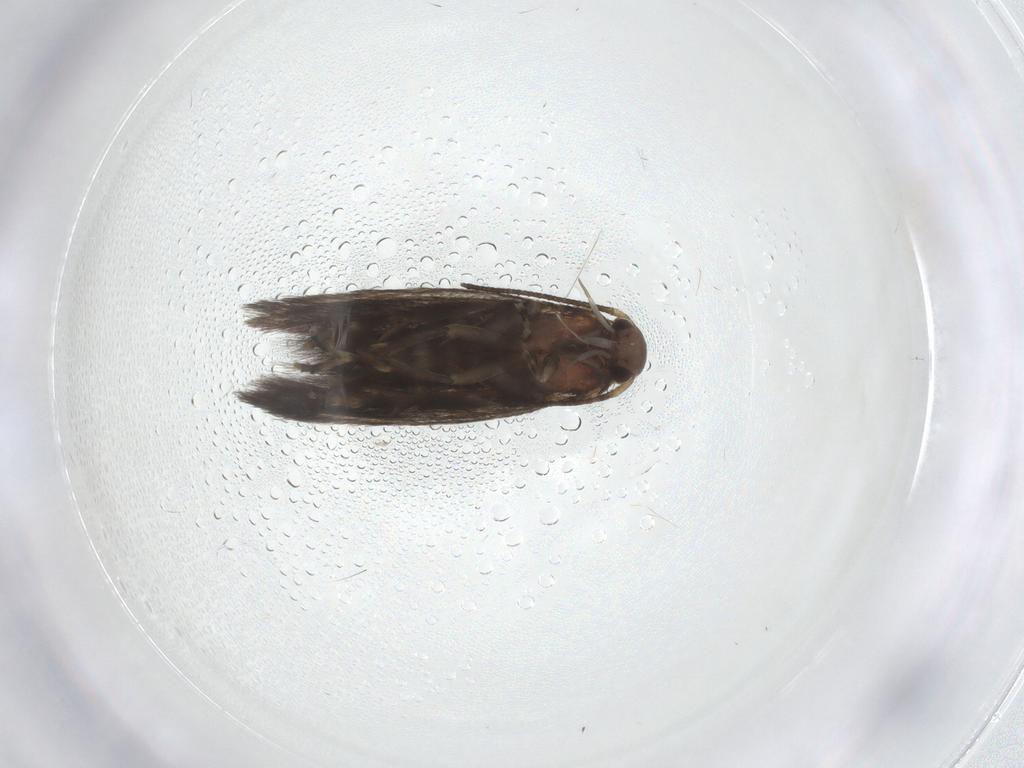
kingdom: Animalia
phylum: Arthropoda
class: Insecta
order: Lepidoptera
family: Elachistidae
